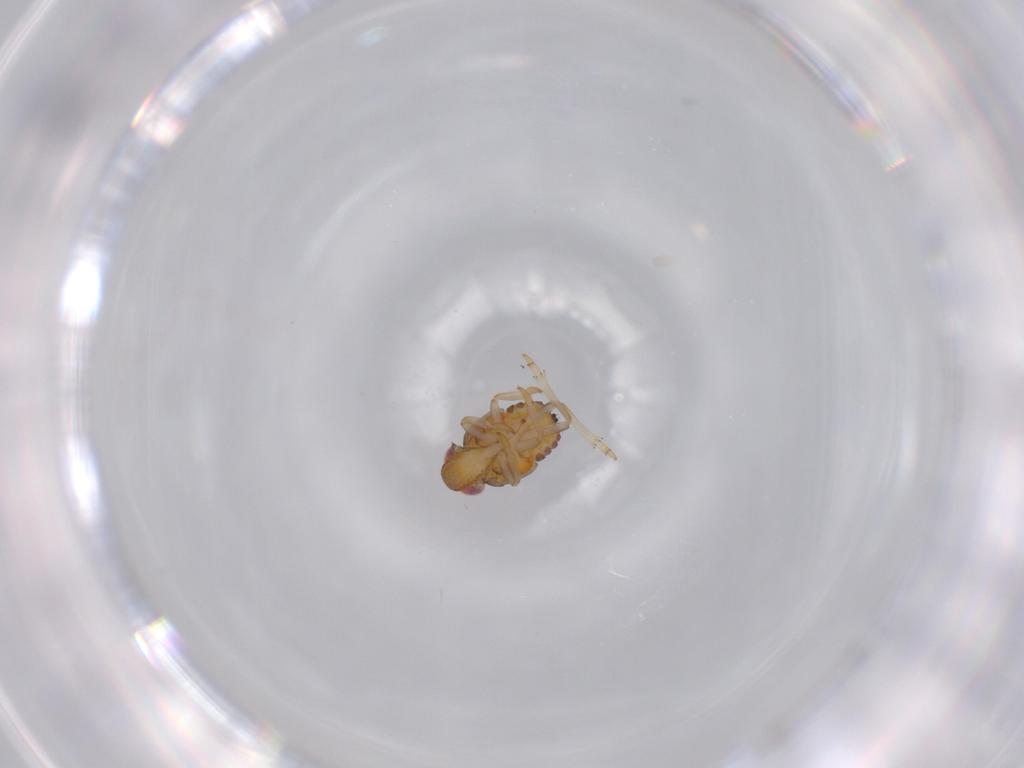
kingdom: Animalia
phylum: Arthropoda
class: Insecta
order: Hemiptera
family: Issidae
